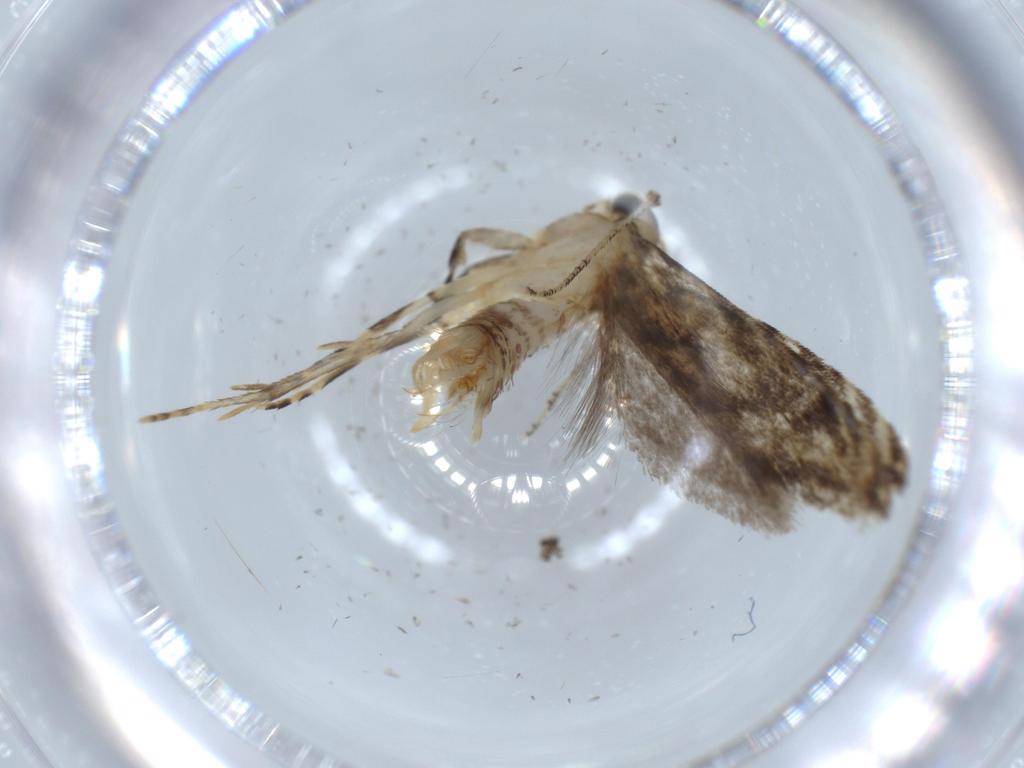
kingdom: Animalia
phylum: Arthropoda
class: Insecta
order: Lepidoptera
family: Tineidae
